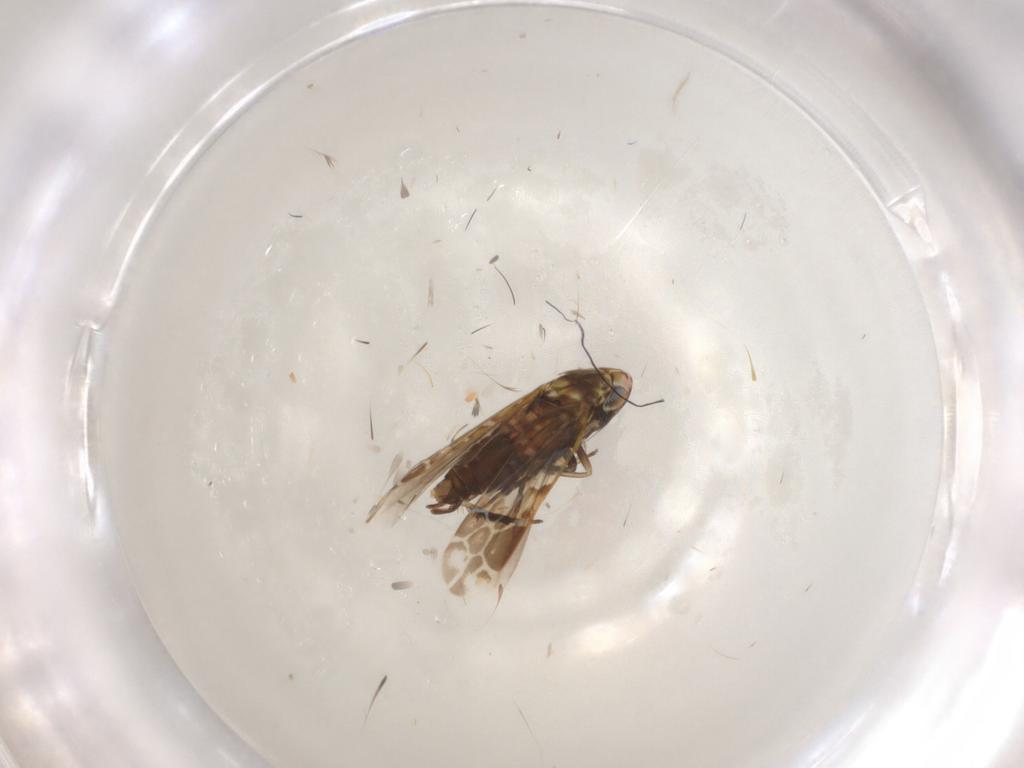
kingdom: Animalia
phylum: Arthropoda
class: Insecta
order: Hemiptera
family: Cicadellidae
